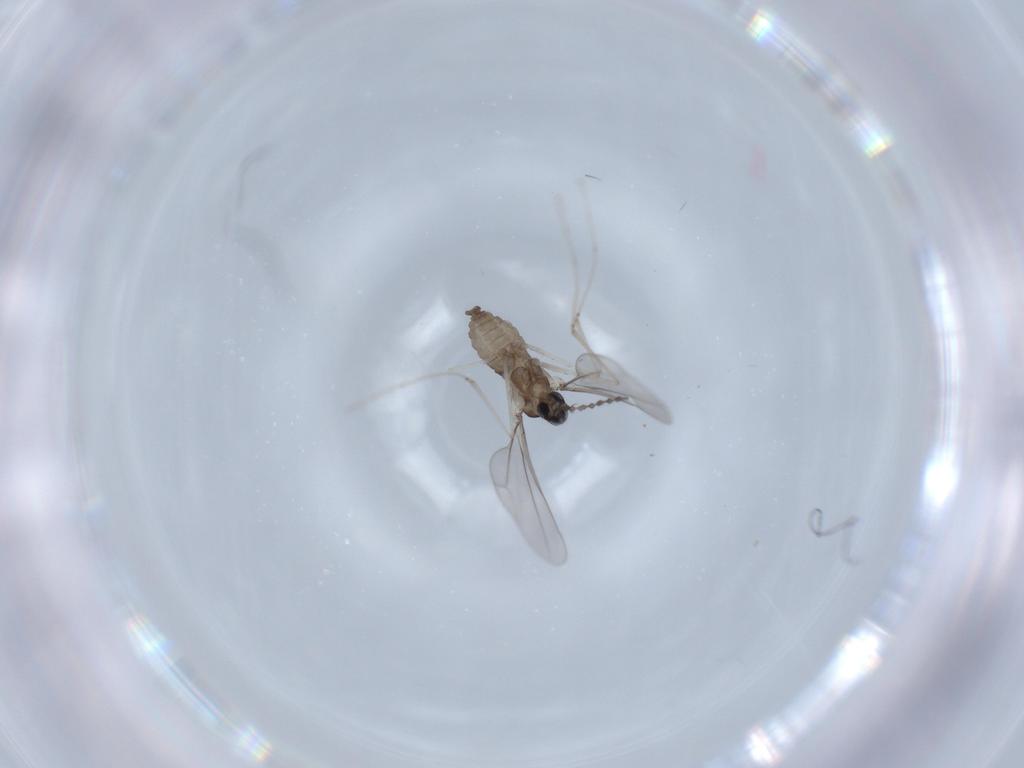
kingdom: Animalia
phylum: Arthropoda
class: Insecta
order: Diptera
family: Cecidomyiidae
